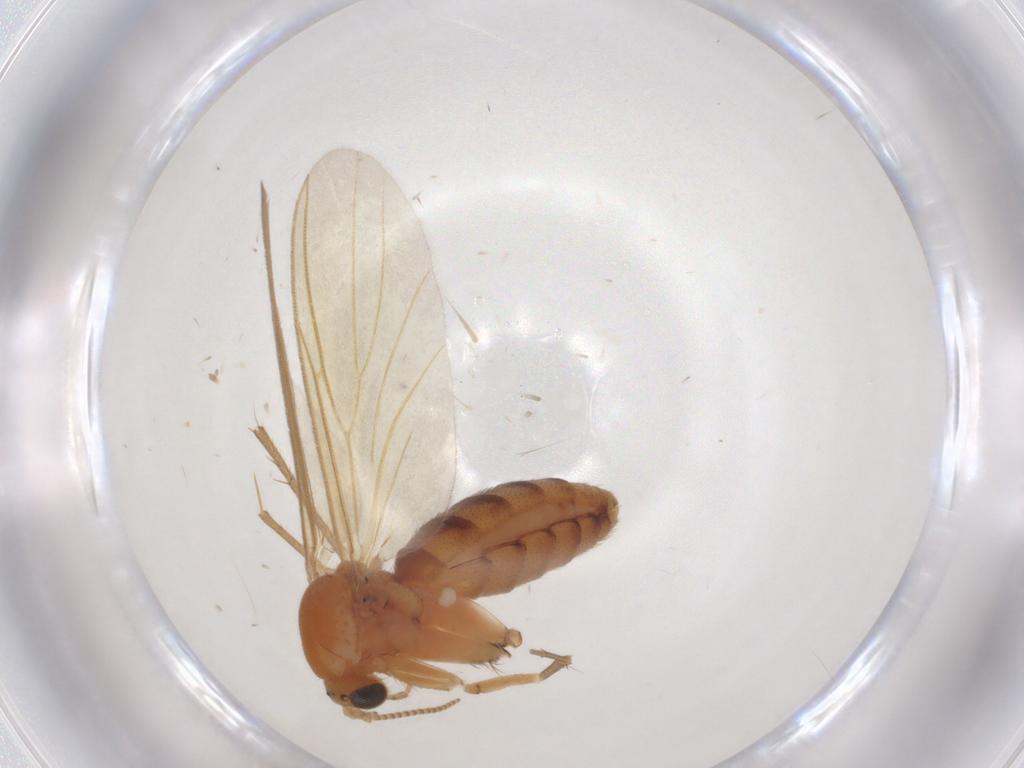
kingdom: Animalia
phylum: Arthropoda
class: Insecta
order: Diptera
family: Mycetophilidae
